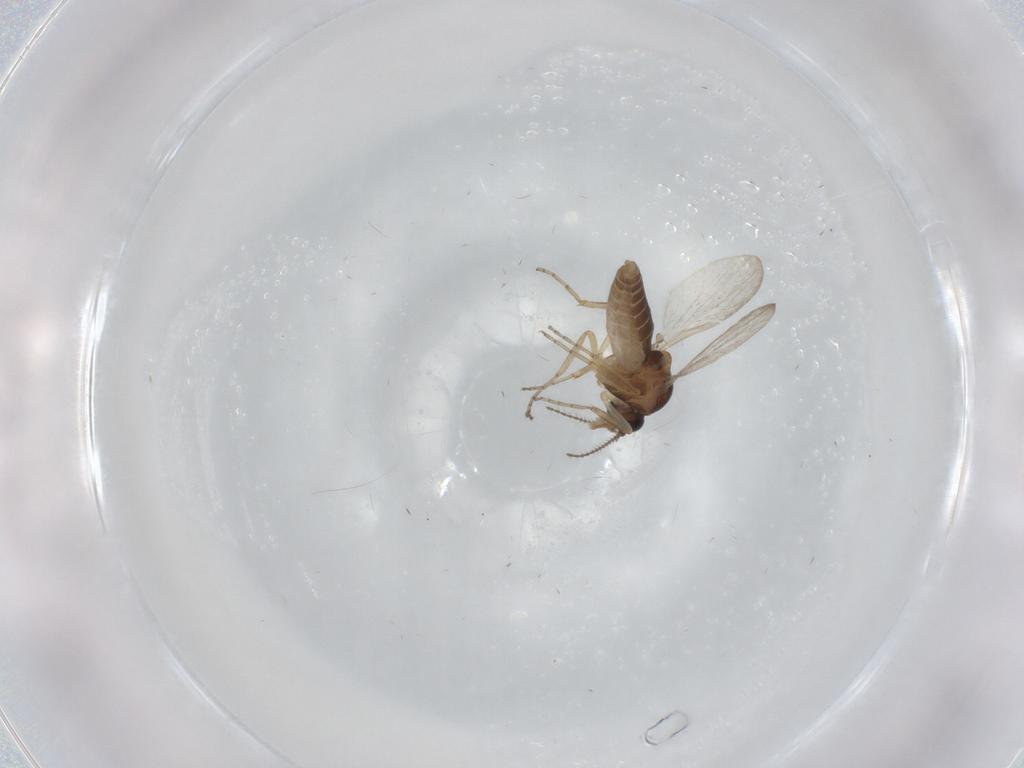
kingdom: Animalia
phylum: Arthropoda
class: Insecta
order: Diptera
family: Ceratopogonidae
